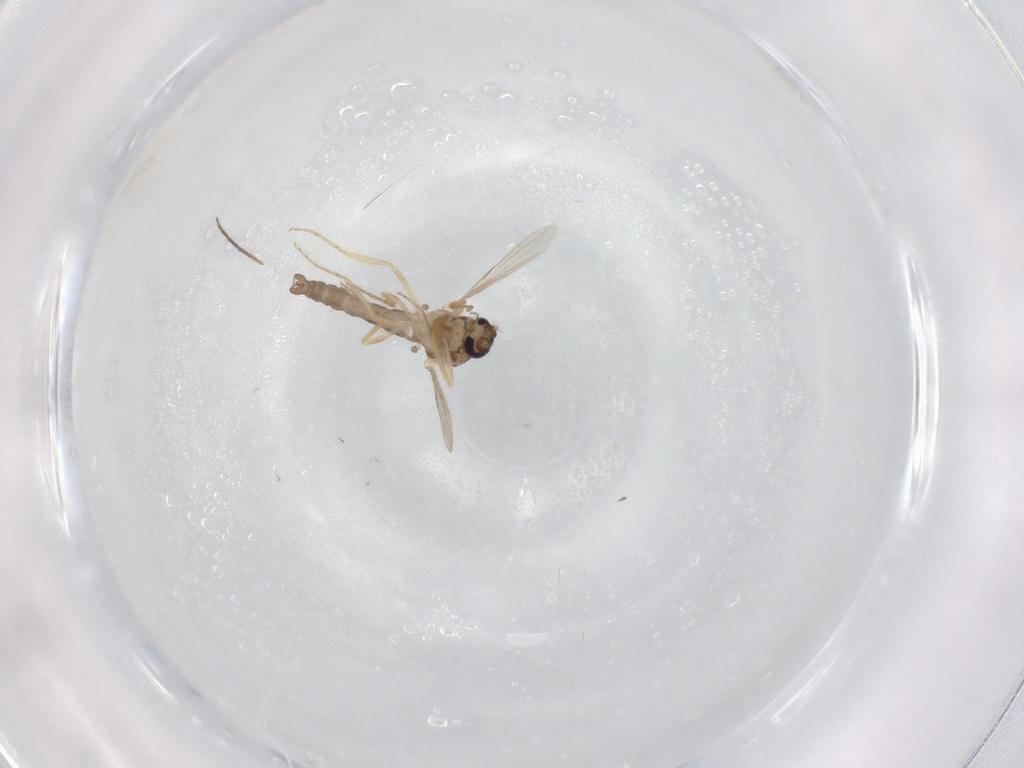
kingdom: Animalia
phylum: Arthropoda
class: Insecta
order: Diptera
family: Ceratopogonidae
